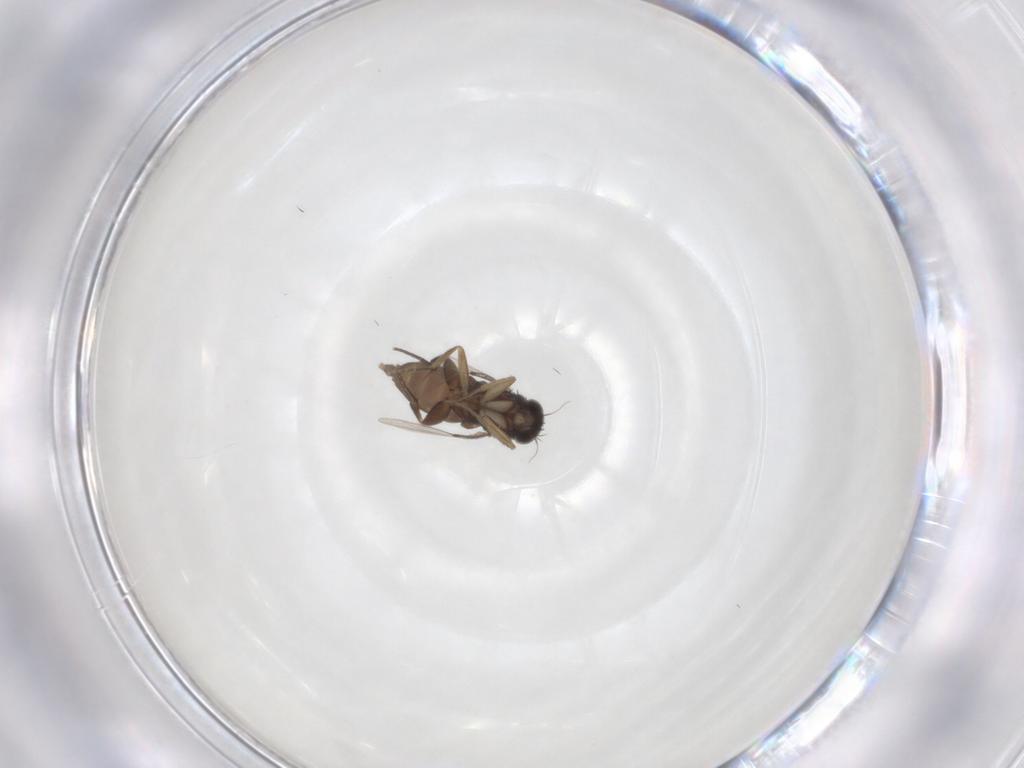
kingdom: Animalia
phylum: Arthropoda
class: Insecta
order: Diptera
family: Phoridae
